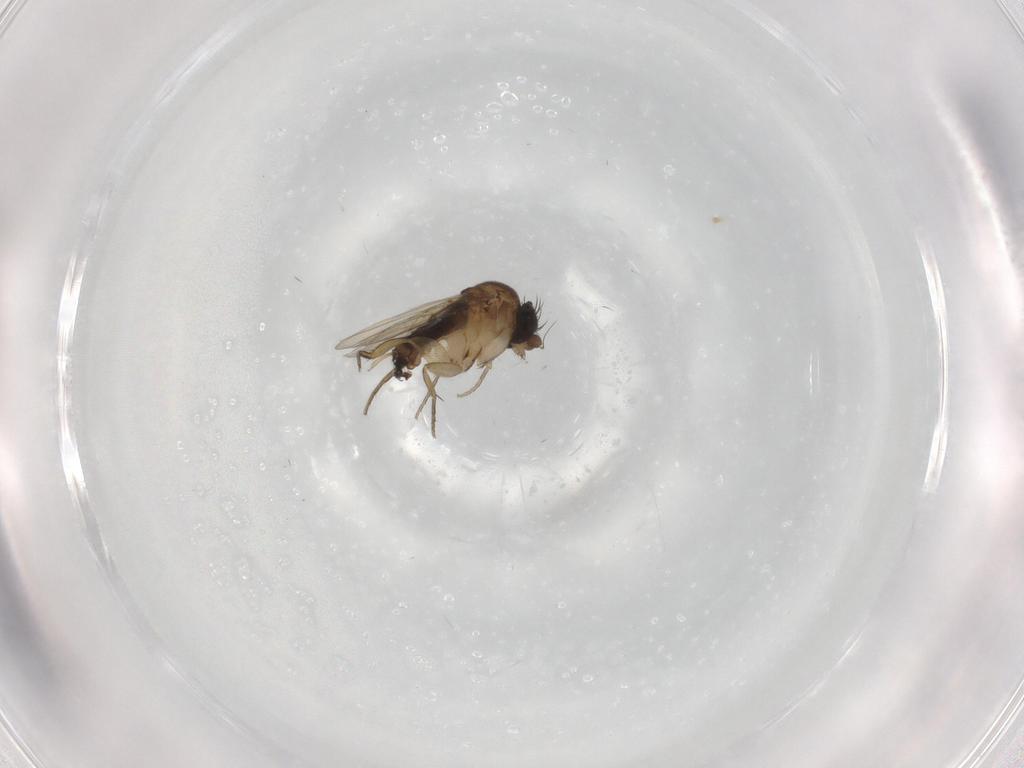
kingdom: Animalia
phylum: Arthropoda
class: Insecta
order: Diptera
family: Phoridae
